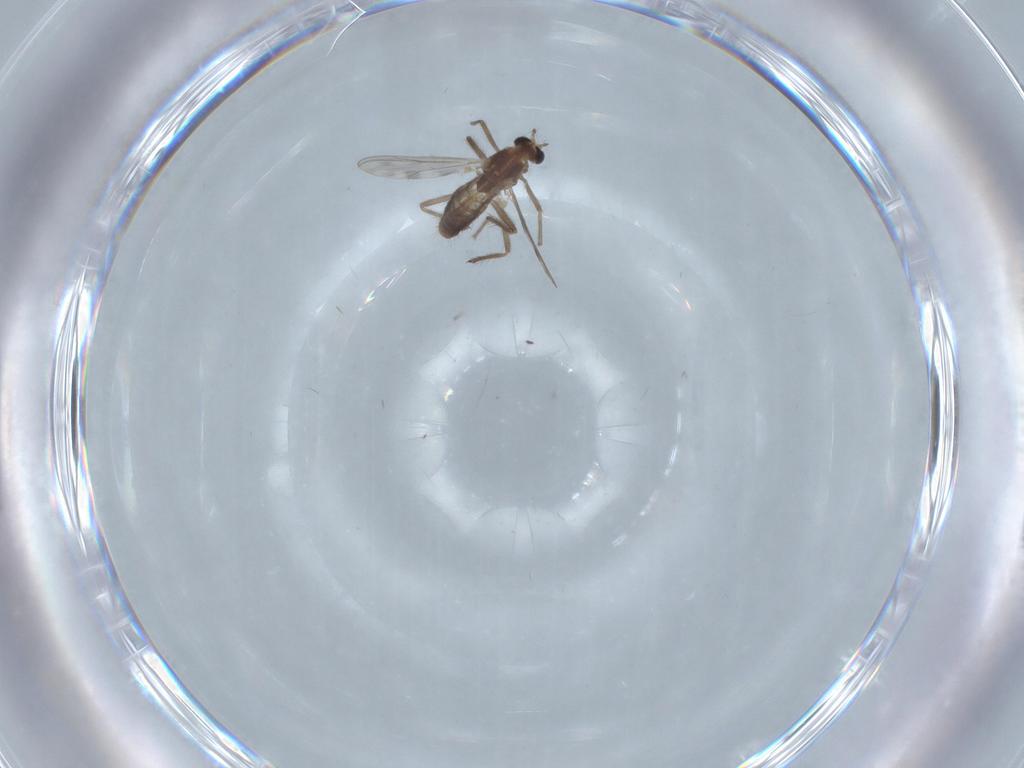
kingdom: Animalia
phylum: Arthropoda
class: Insecta
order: Diptera
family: Chironomidae
